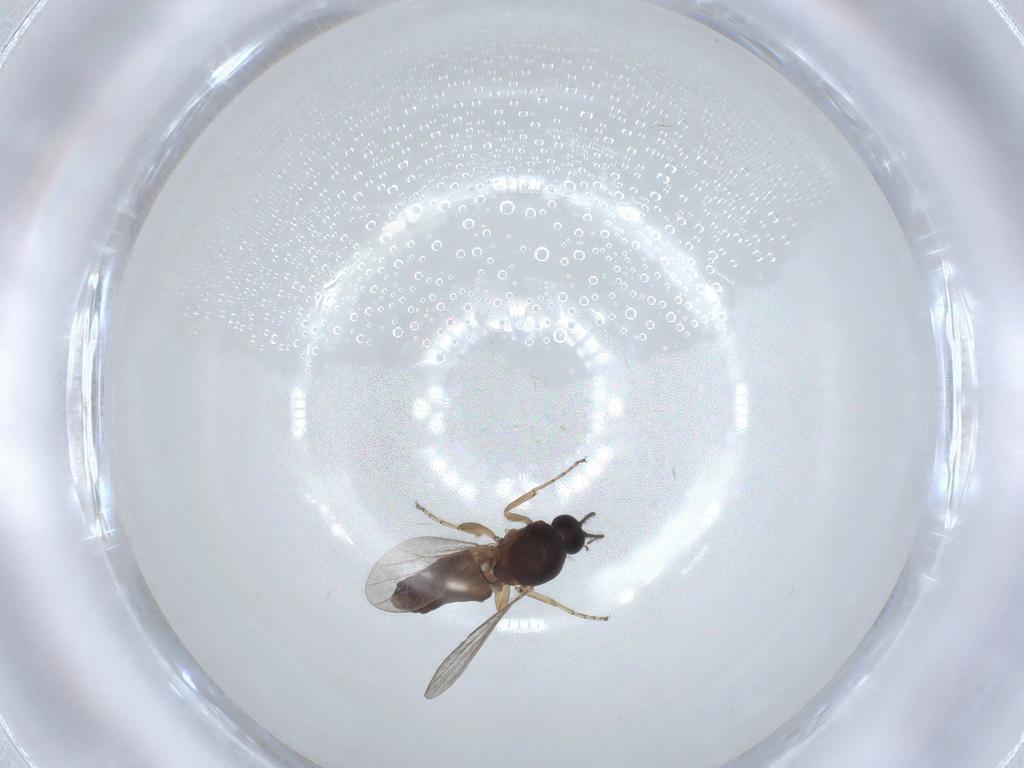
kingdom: Animalia
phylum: Arthropoda
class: Insecta
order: Diptera
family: Ceratopogonidae
